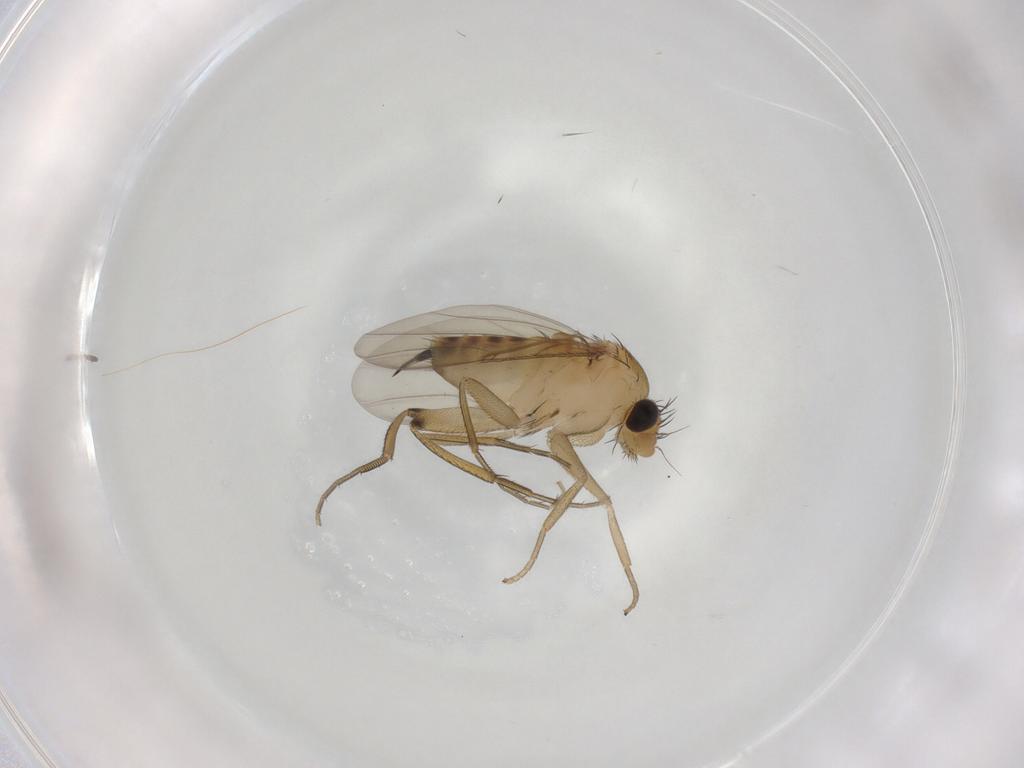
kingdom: Animalia
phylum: Arthropoda
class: Insecta
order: Diptera
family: Phoridae
